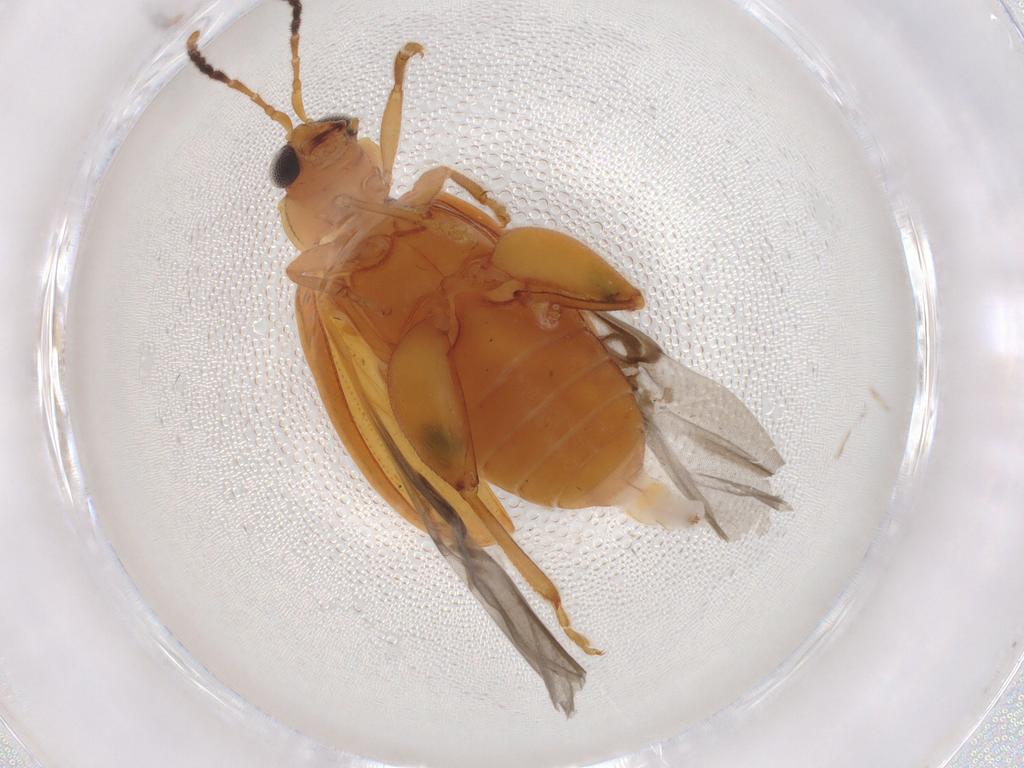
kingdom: Animalia
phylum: Arthropoda
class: Insecta
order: Coleoptera
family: Chrysomelidae
